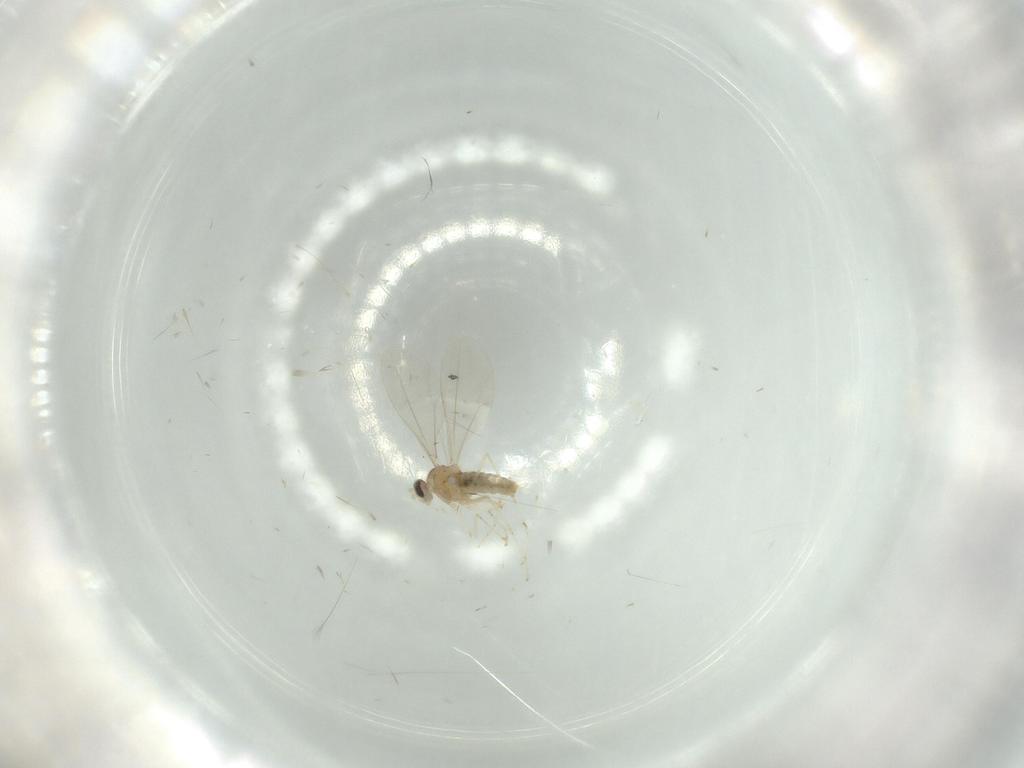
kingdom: Animalia
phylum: Arthropoda
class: Insecta
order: Diptera
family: Cecidomyiidae
